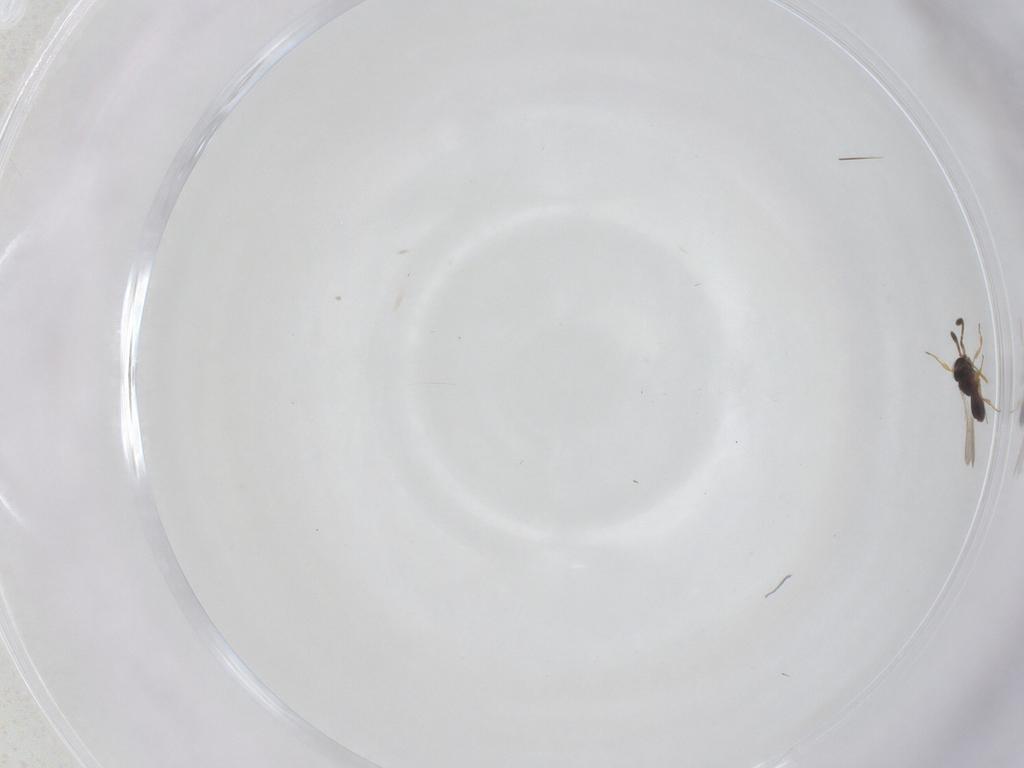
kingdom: Animalia
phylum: Arthropoda
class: Insecta
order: Hymenoptera
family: Scelionidae
